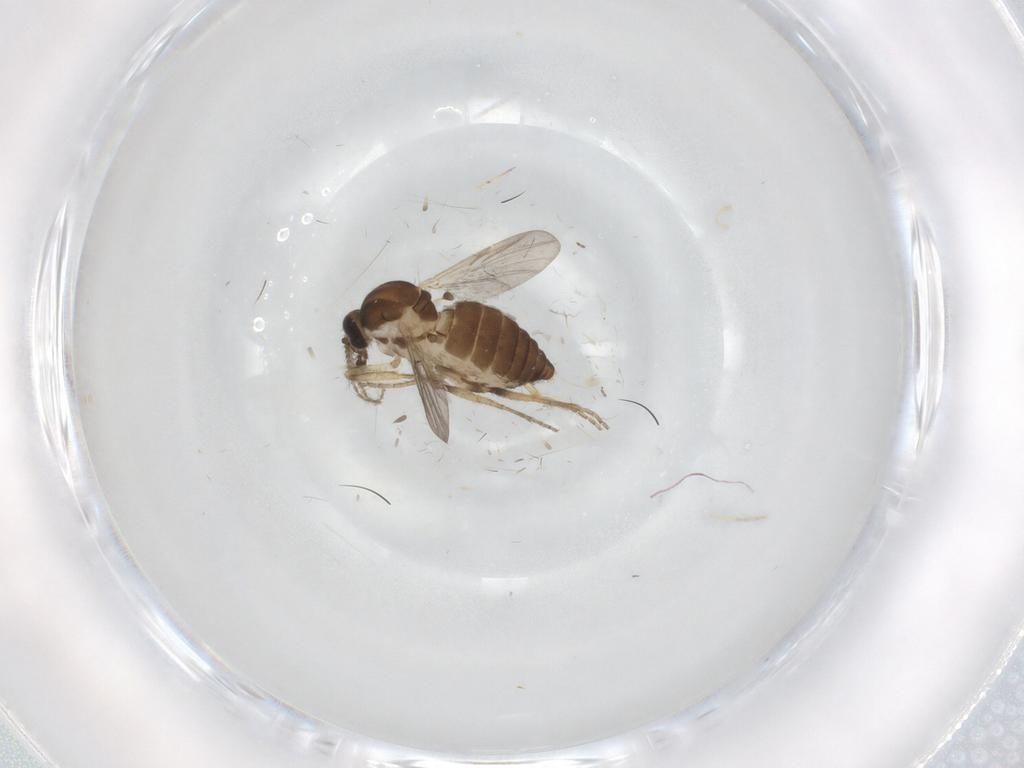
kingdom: Animalia
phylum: Arthropoda
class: Insecta
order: Diptera
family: Ceratopogonidae
